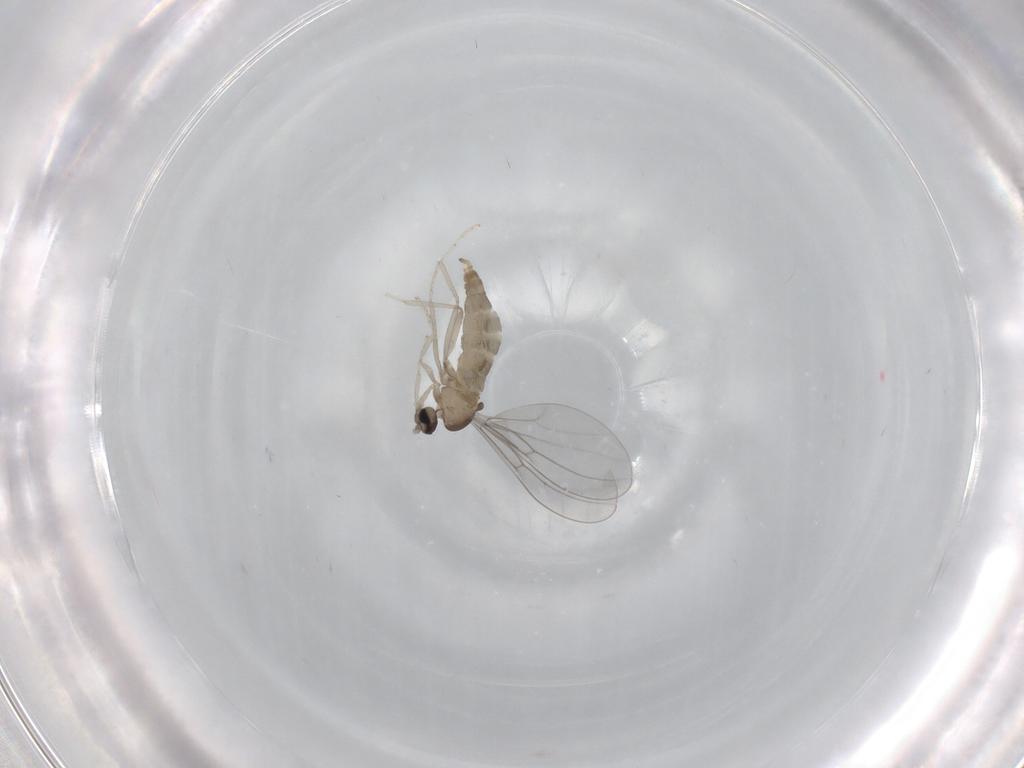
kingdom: Animalia
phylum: Arthropoda
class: Insecta
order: Diptera
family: Cecidomyiidae
